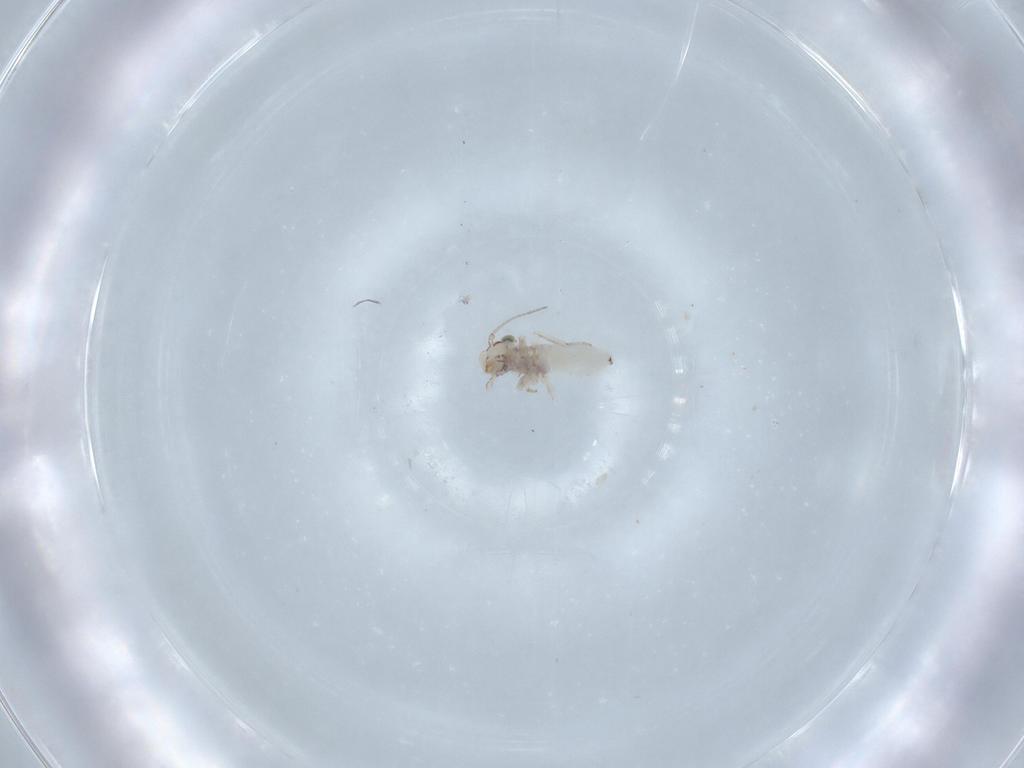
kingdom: Animalia
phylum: Arthropoda
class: Insecta
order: Psocodea
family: Lepidopsocidae
